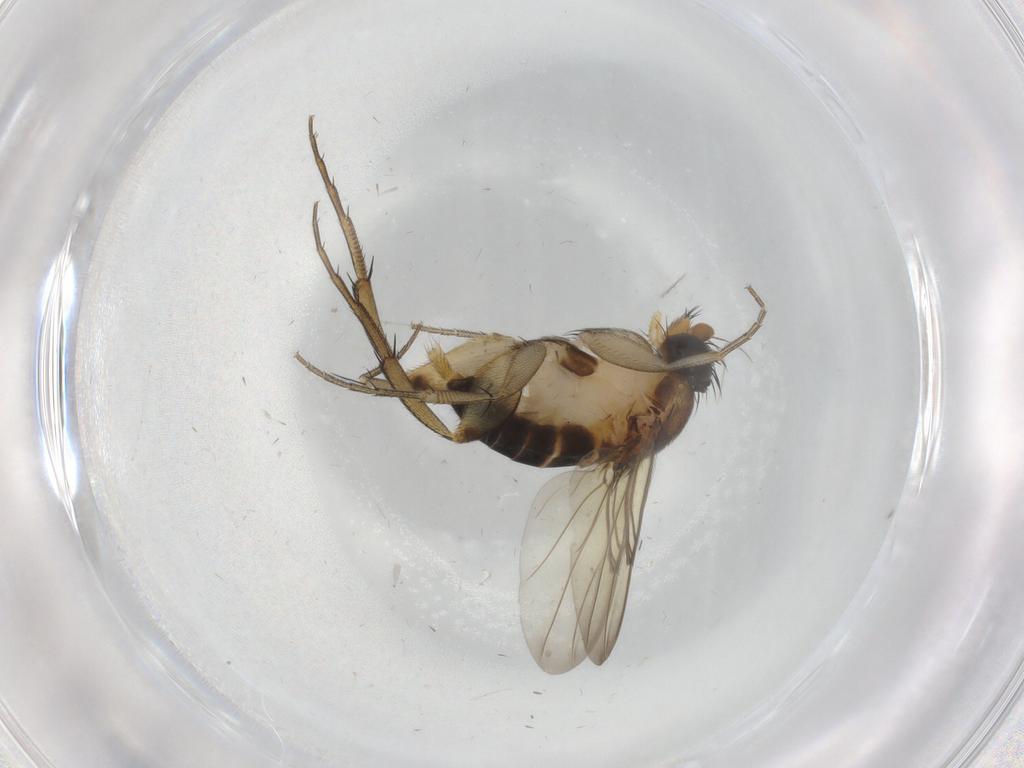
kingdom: Animalia
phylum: Arthropoda
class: Insecta
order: Diptera
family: Phoridae
